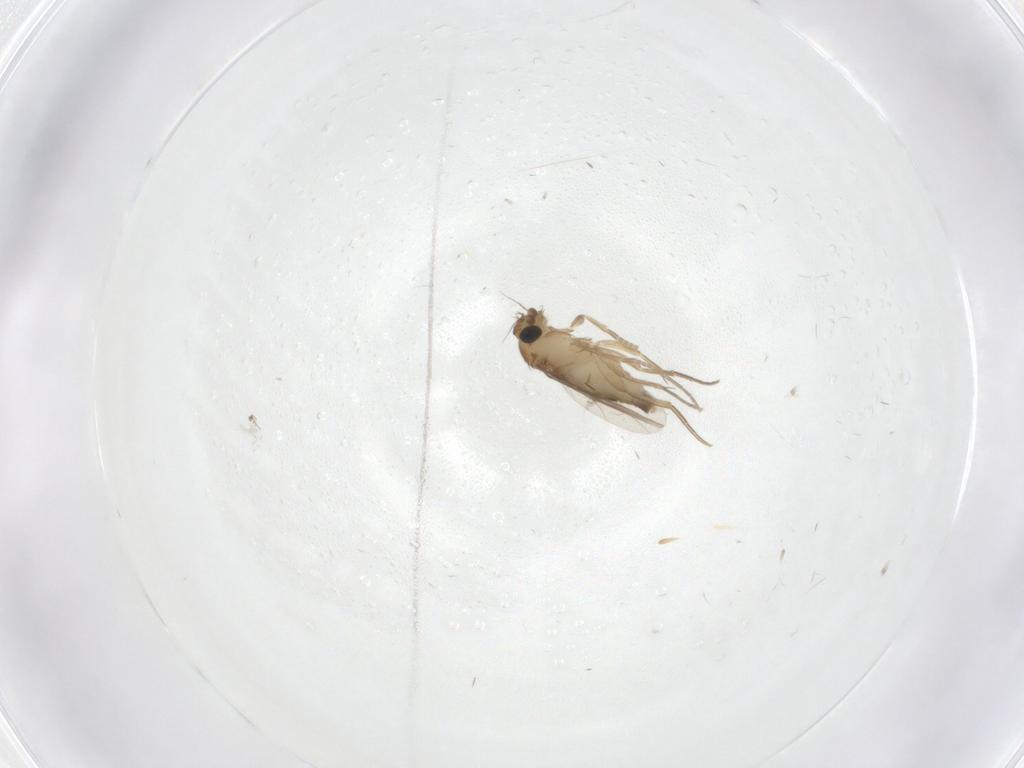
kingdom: Animalia
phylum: Arthropoda
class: Insecta
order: Diptera
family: Phoridae
